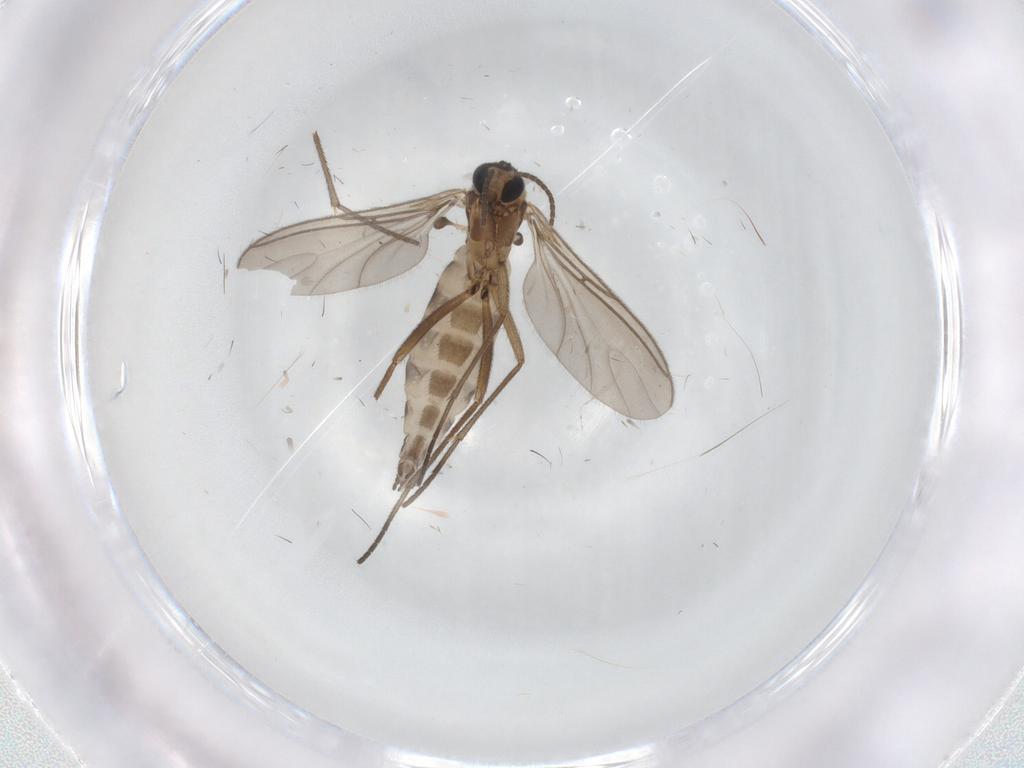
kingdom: Animalia
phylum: Arthropoda
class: Insecta
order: Diptera
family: Sciaridae
